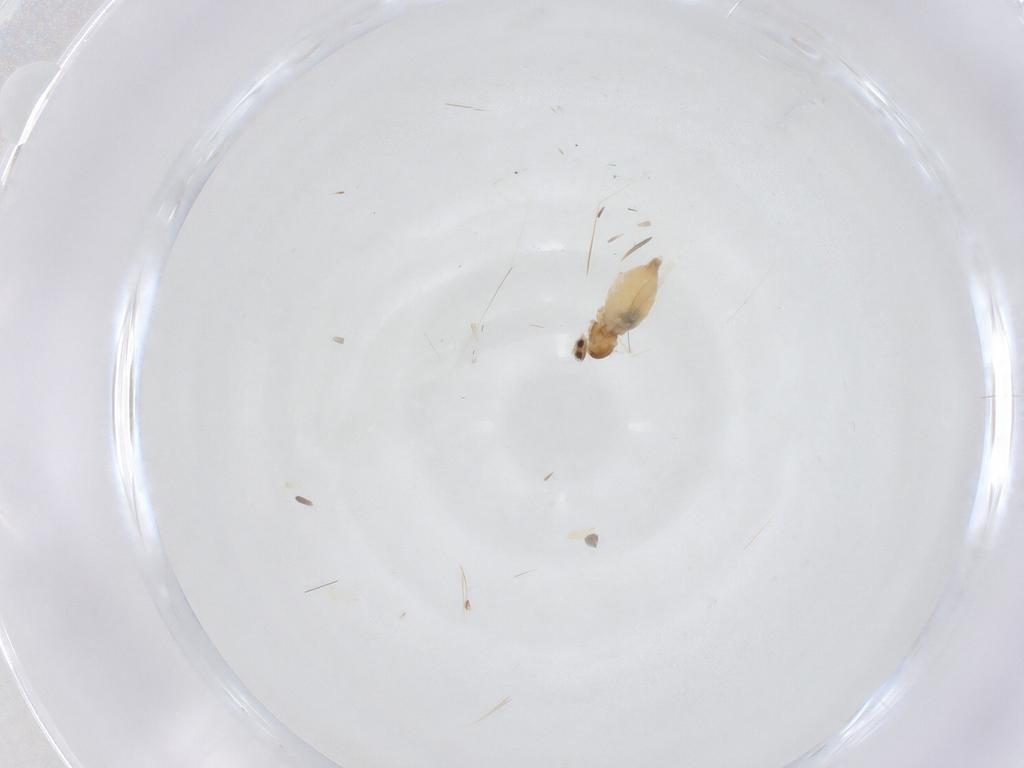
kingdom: Animalia
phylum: Arthropoda
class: Insecta
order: Diptera
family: Cecidomyiidae
